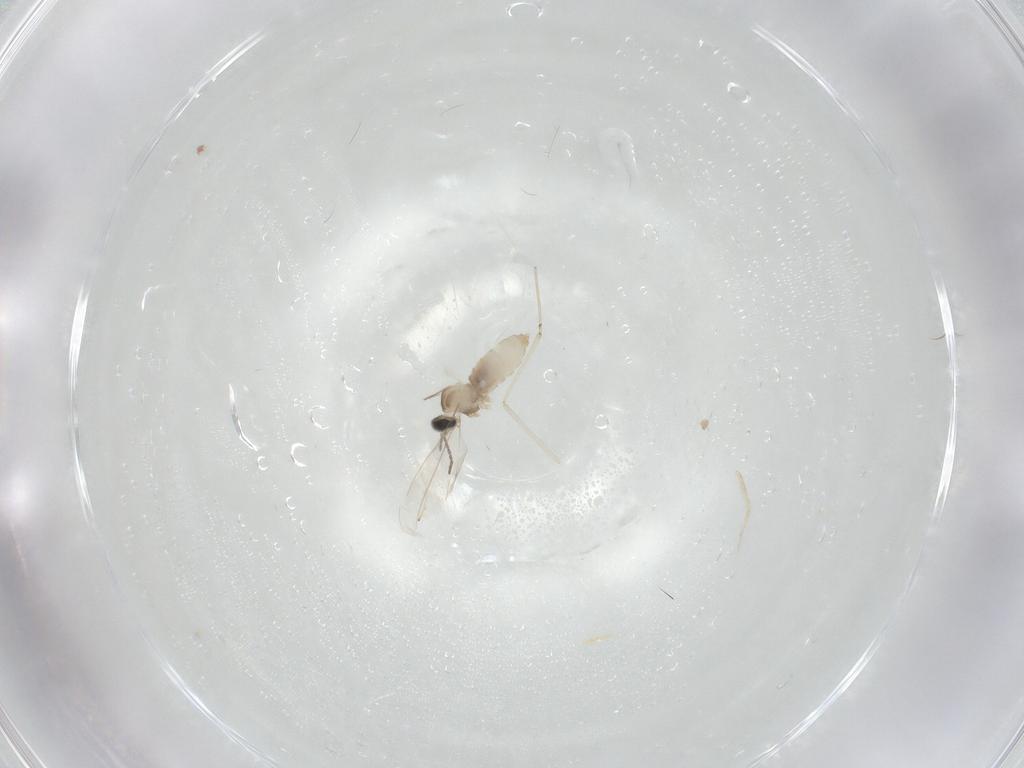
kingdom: Animalia
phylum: Arthropoda
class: Insecta
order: Diptera
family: Cecidomyiidae
